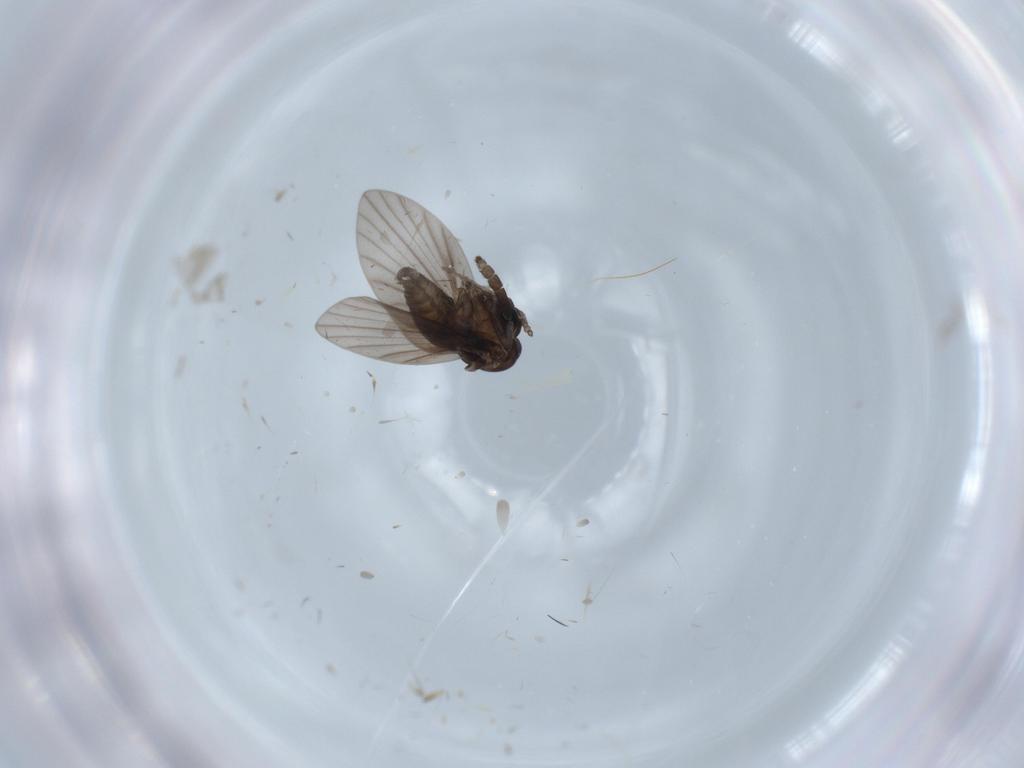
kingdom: Animalia
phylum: Arthropoda
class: Insecta
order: Diptera
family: Psychodidae
